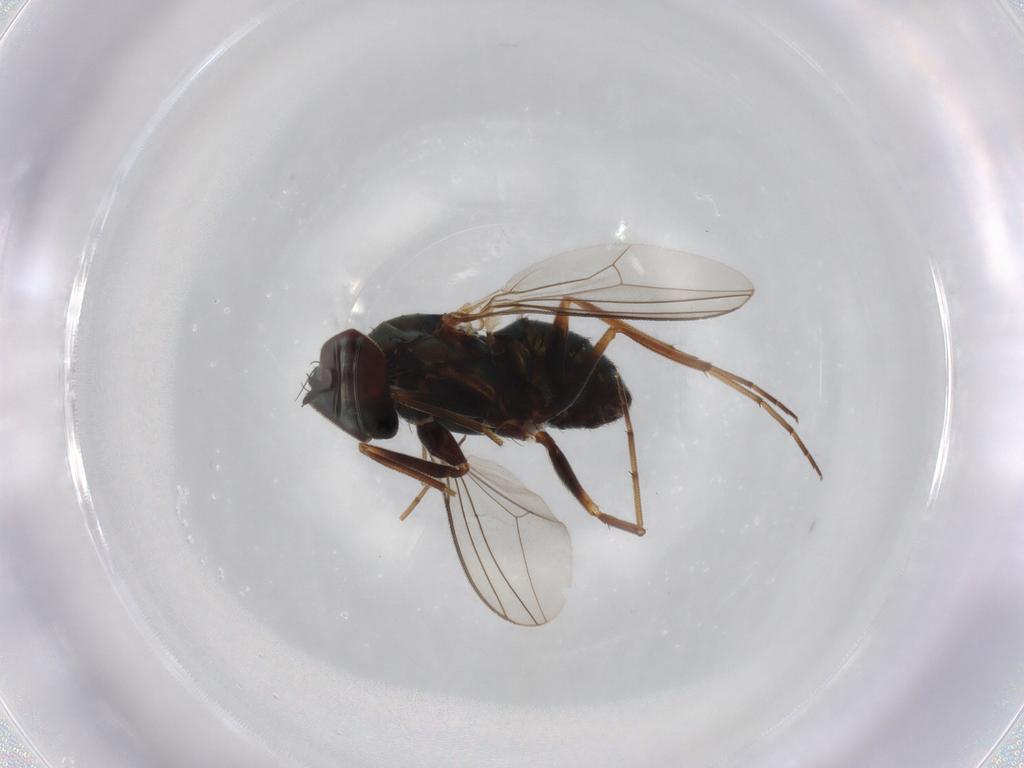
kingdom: Animalia
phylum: Arthropoda
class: Insecta
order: Diptera
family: Dolichopodidae
